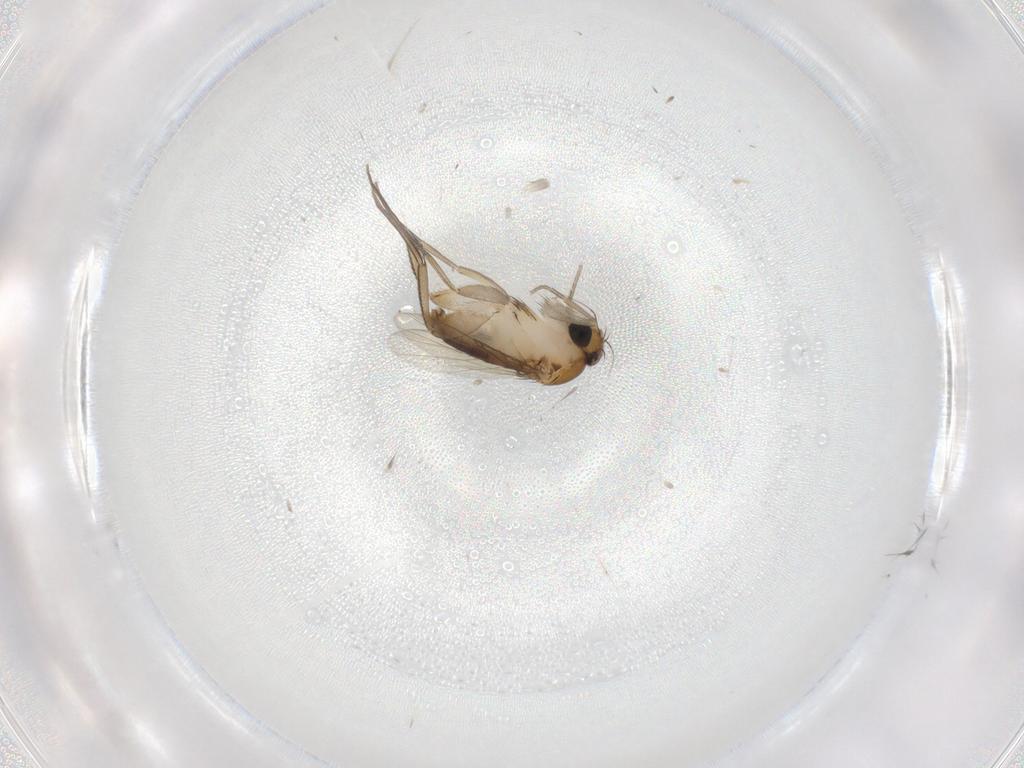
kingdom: Animalia
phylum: Arthropoda
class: Insecta
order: Diptera
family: Phoridae
